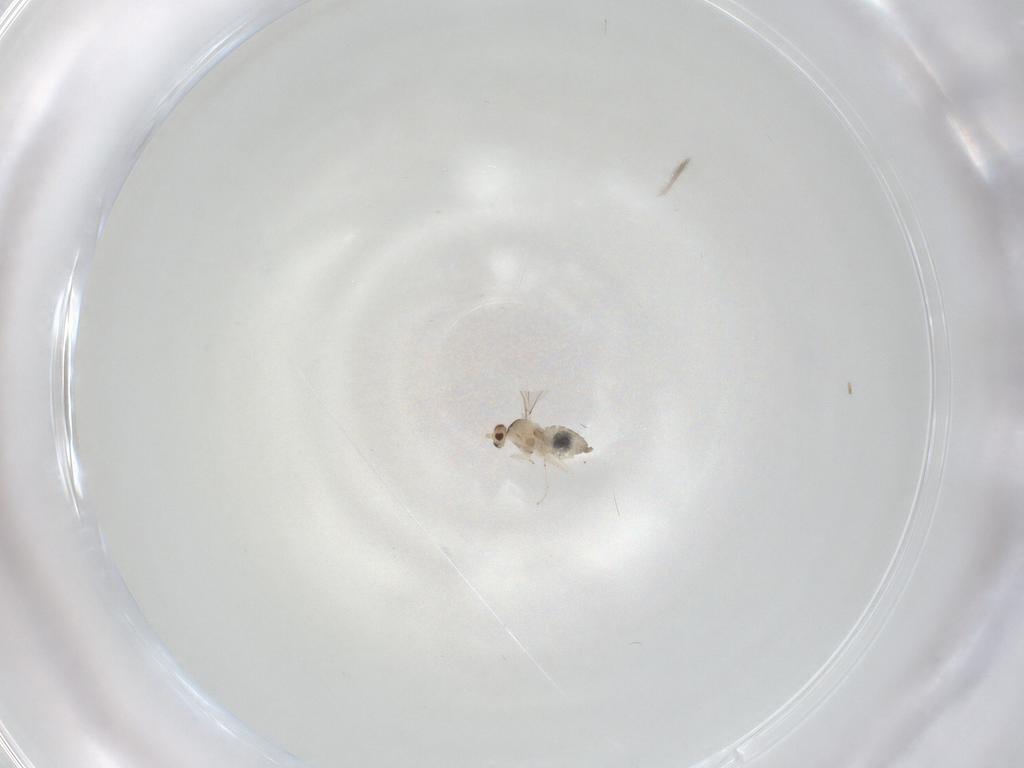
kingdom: Animalia
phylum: Arthropoda
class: Insecta
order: Diptera
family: Cecidomyiidae
